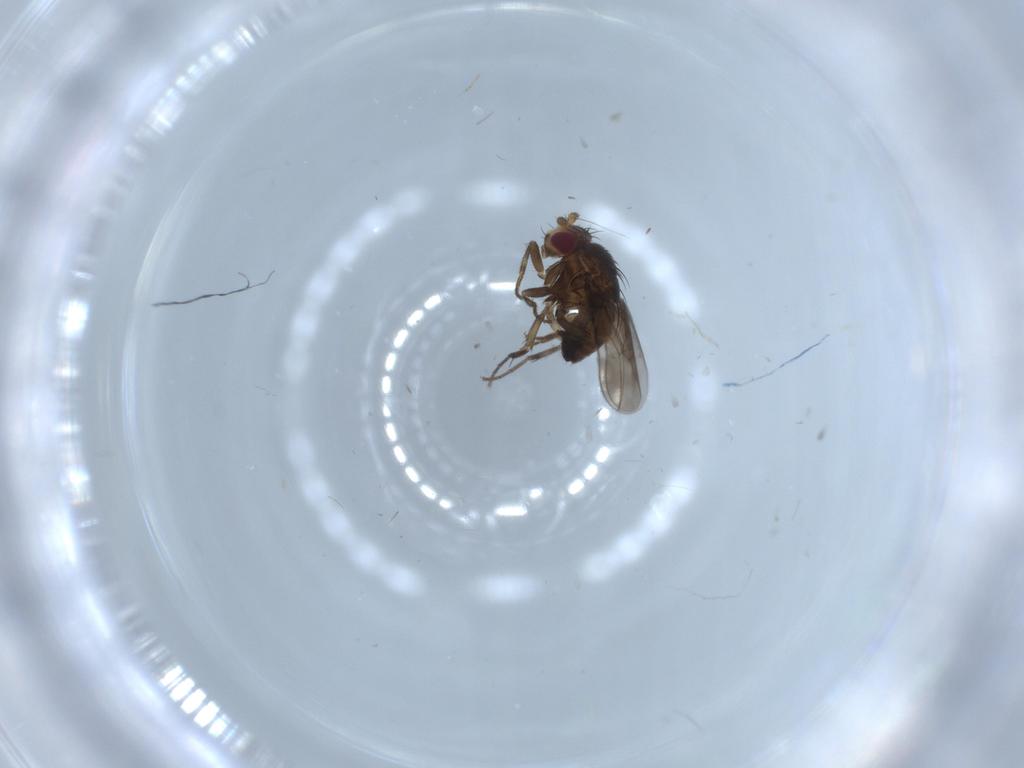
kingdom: Animalia
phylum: Arthropoda
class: Insecta
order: Diptera
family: Sphaeroceridae
